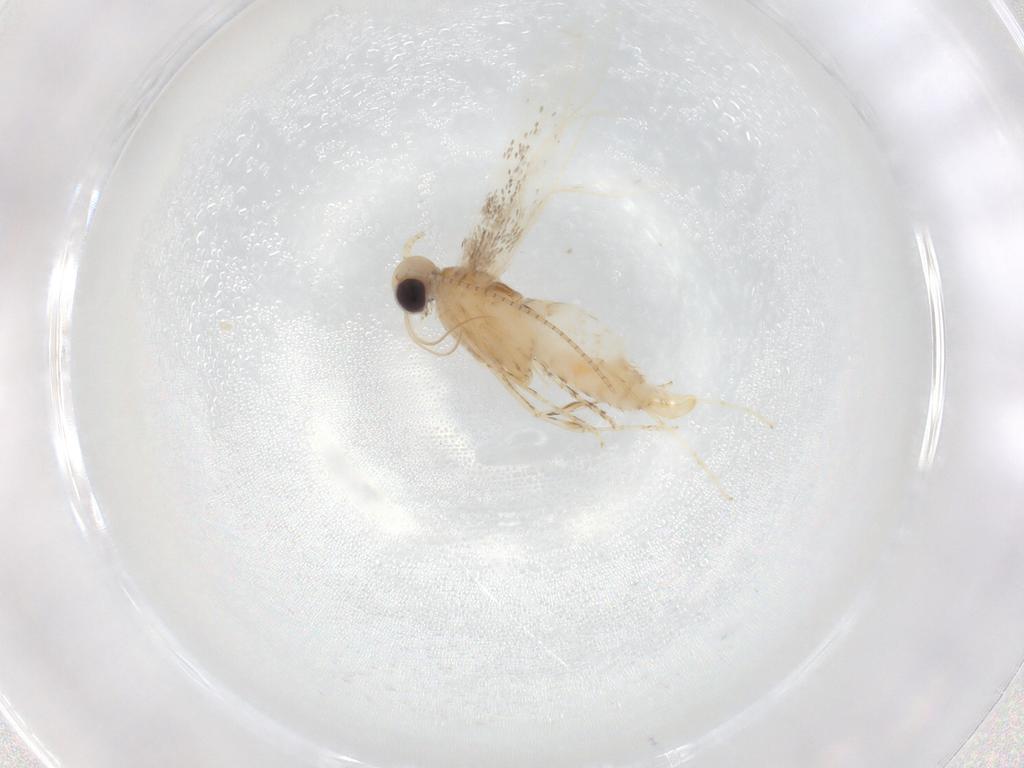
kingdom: Animalia
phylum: Arthropoda
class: Insecta
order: Lepidoptera
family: Gracillariidae
